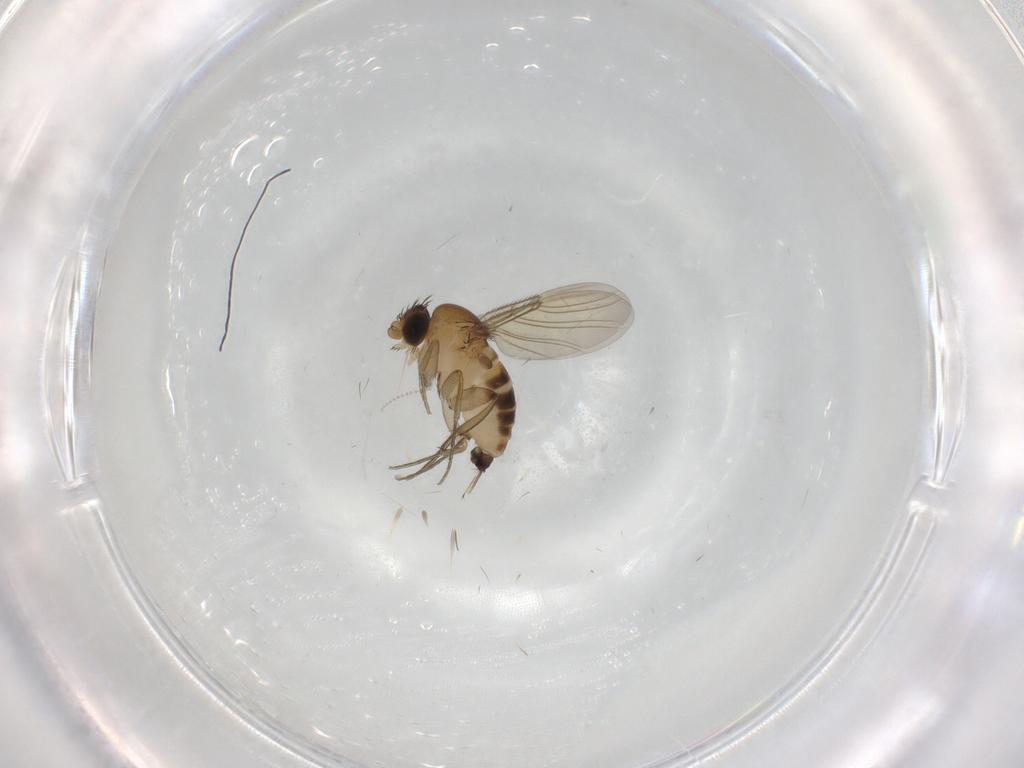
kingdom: Animalia
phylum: Arthropoda
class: Insecta
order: Diptera
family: Phoridae
